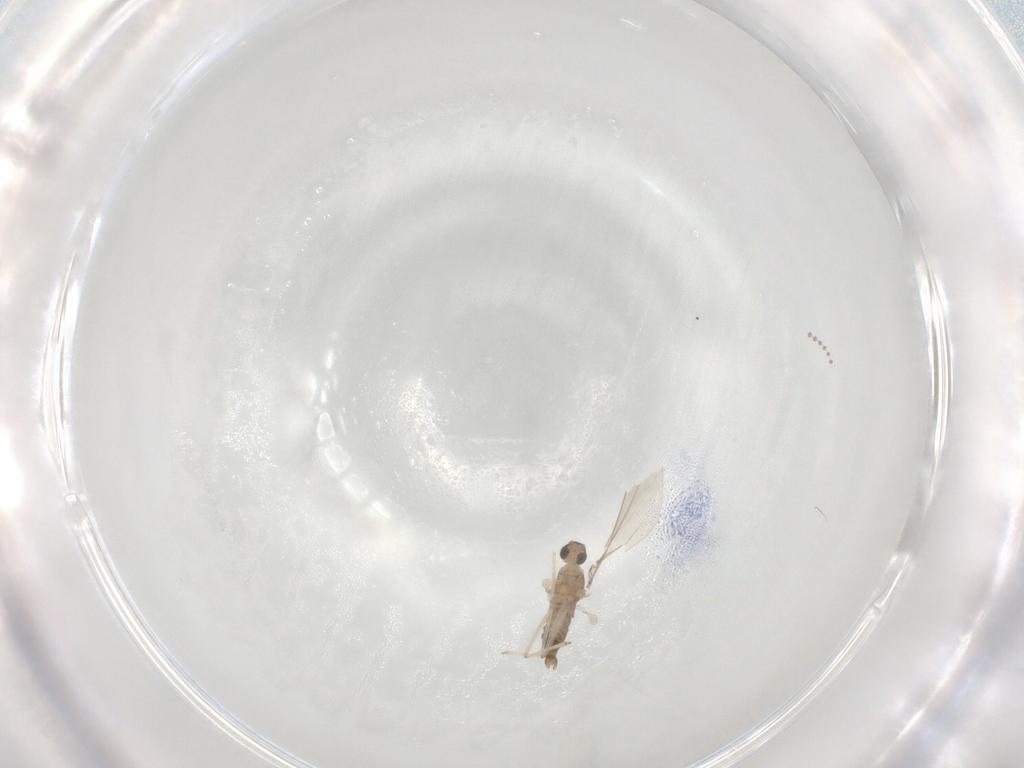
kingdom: Animalia
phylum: Arthropoda
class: Insecta
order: Diptera
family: Cecidomyiidae
